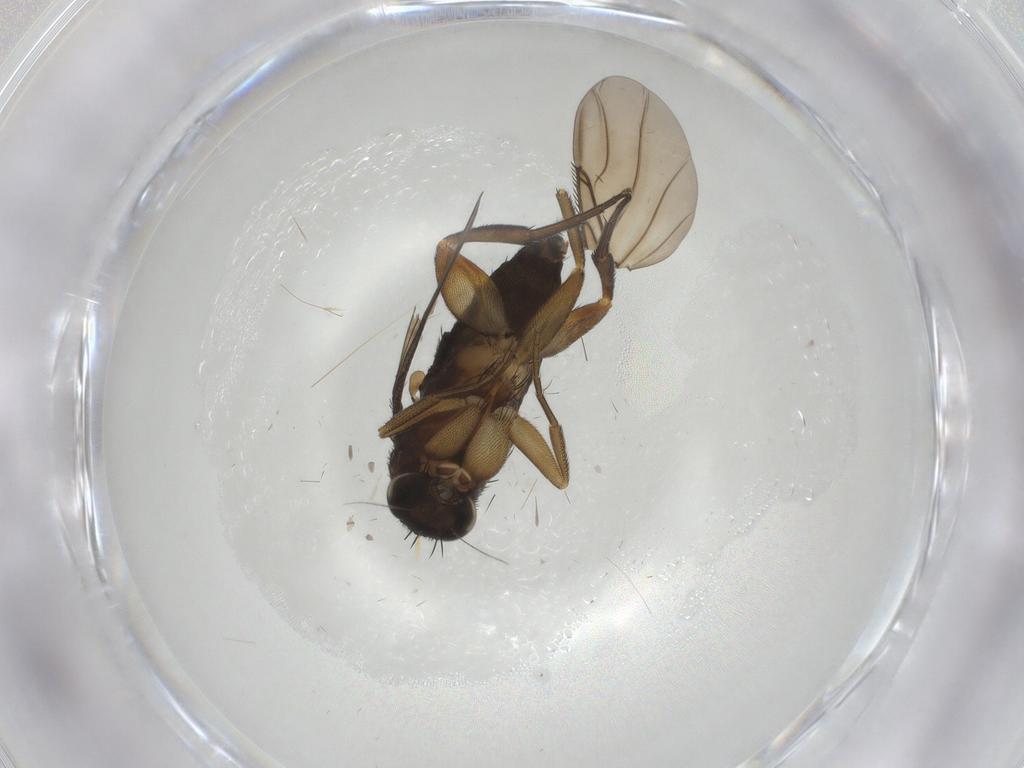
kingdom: Animalia
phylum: Arthropoda
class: Insecta
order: Diptera
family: Phoridae
